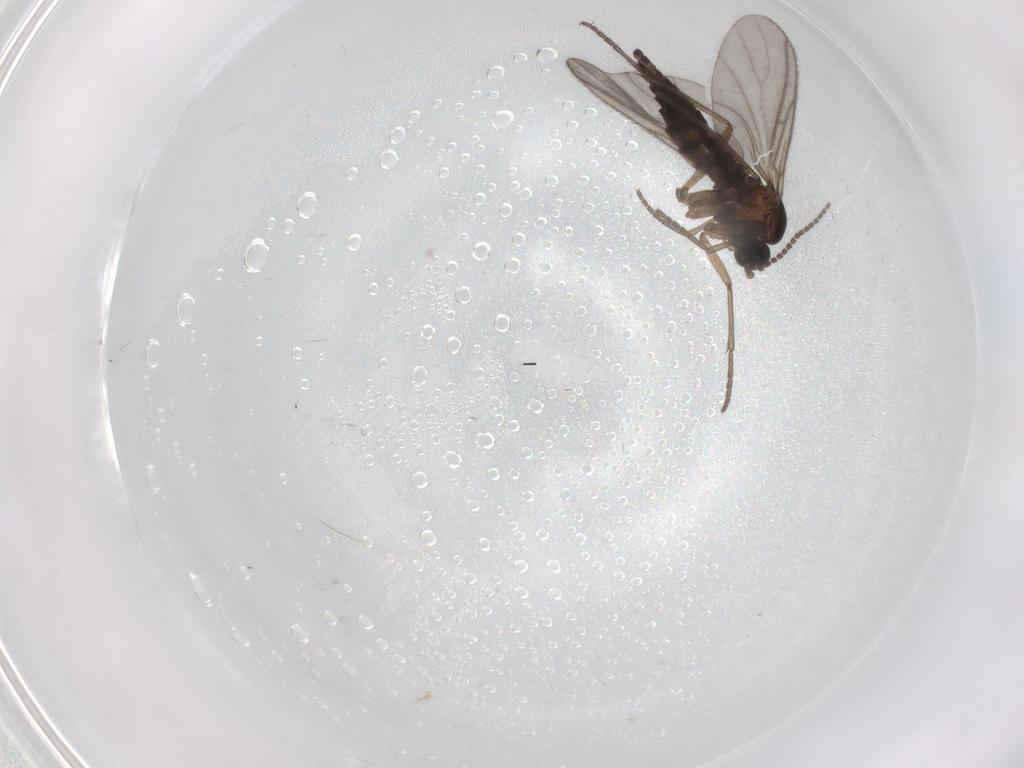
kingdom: Animalia
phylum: Arthropoda
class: Insecta
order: Diptera
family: Sciaridae
